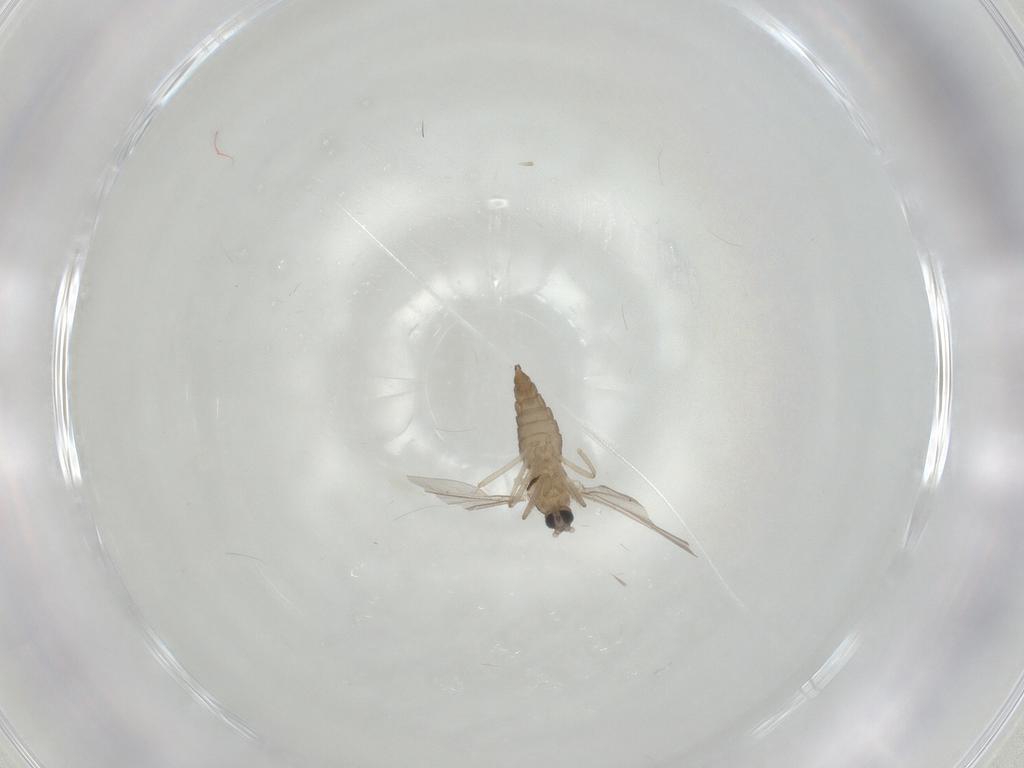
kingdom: Animalia
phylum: Arthropoda
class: Insecta
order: Diptera
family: Chironomidae
